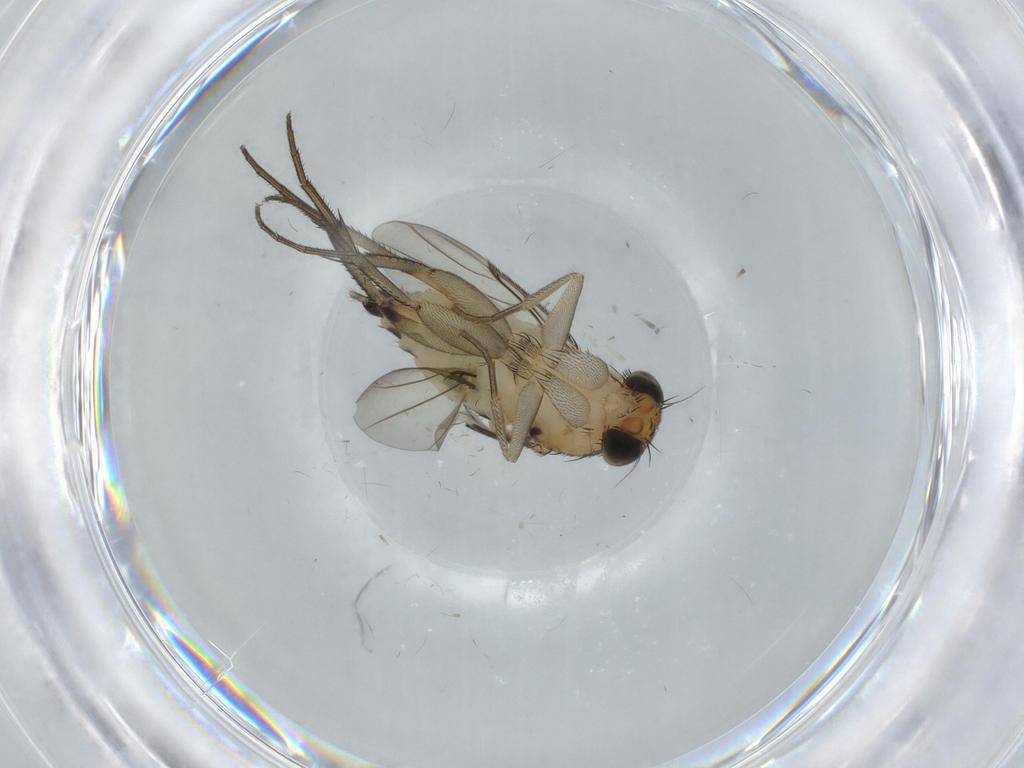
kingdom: Animalia
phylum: Arthropoda
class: Insecta
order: Diptera
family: Phoridae
